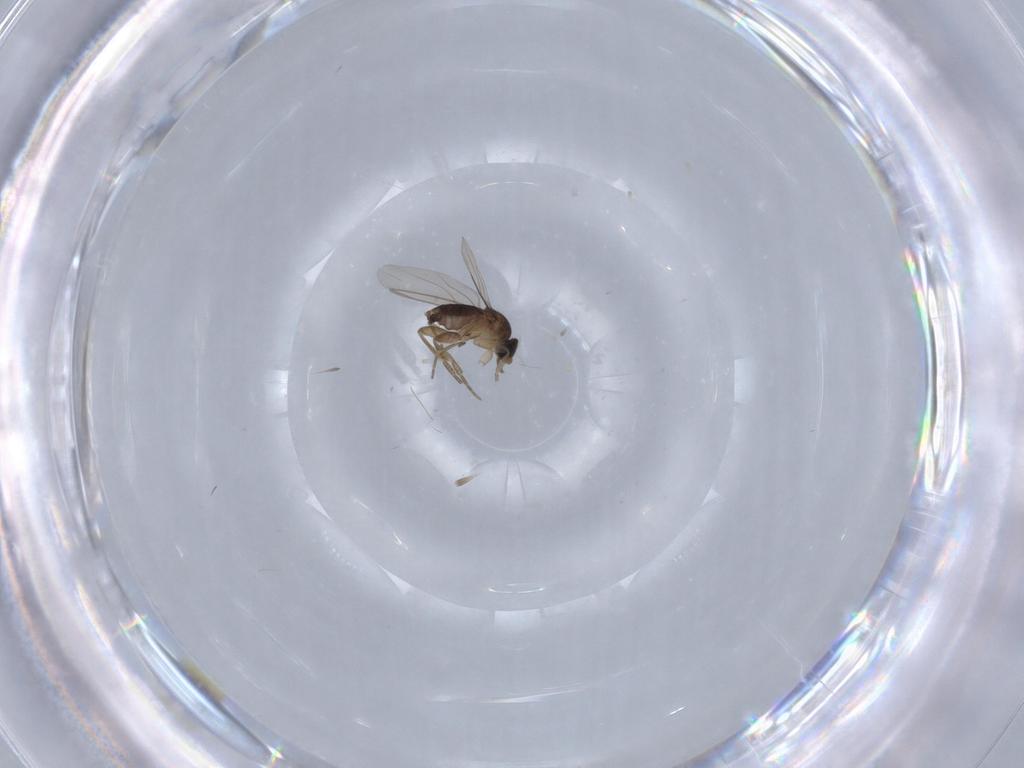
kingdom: Animalia
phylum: Arthropoda
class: Insecta
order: Diptera
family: Phoridae
